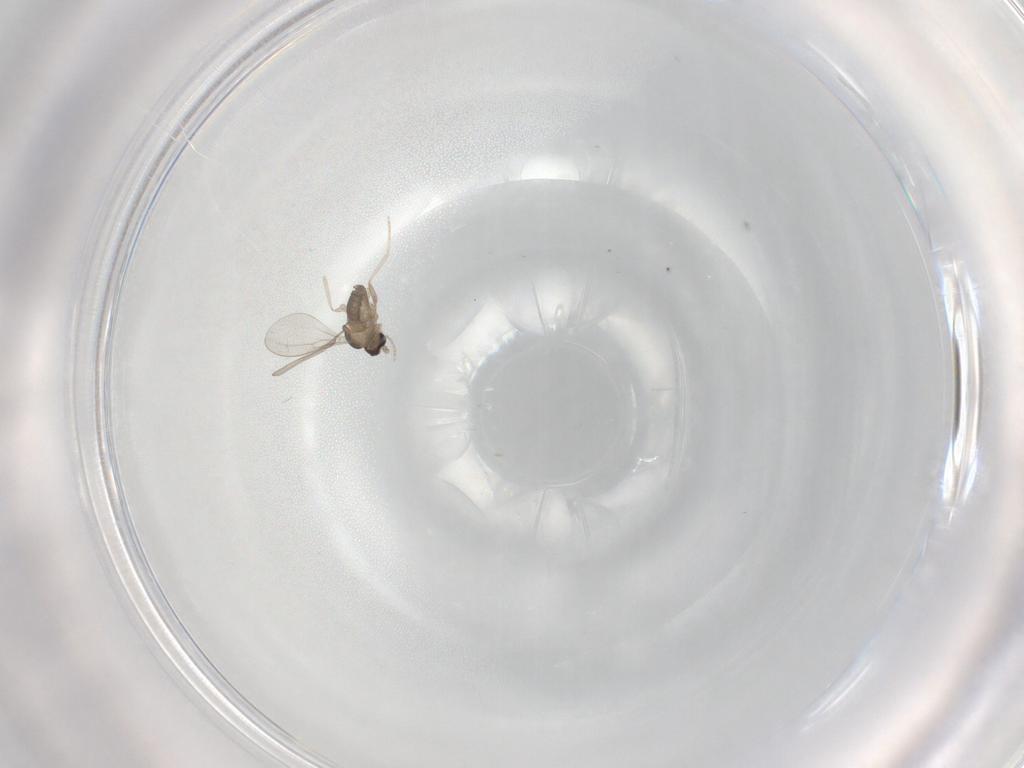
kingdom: Animalia
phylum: Arthropoda
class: Insecta
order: Diptera
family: Cecidomyiidae
